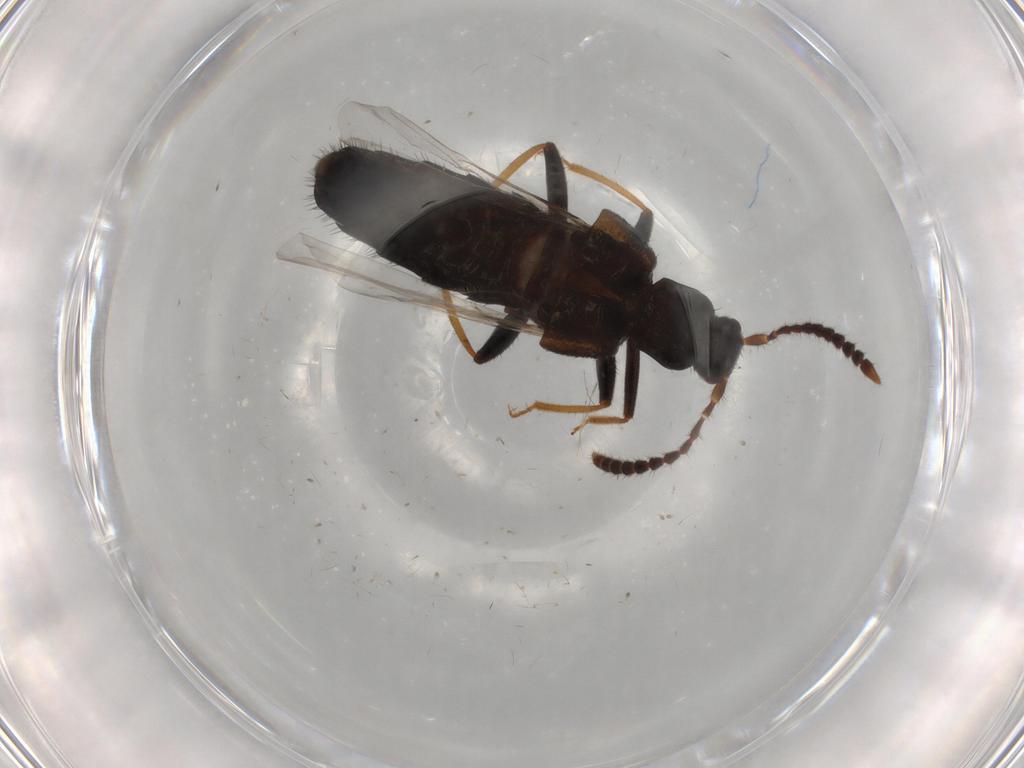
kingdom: Animalia
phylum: Arthropoda
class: Insecta
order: Coleoptera
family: Staphylinidae
